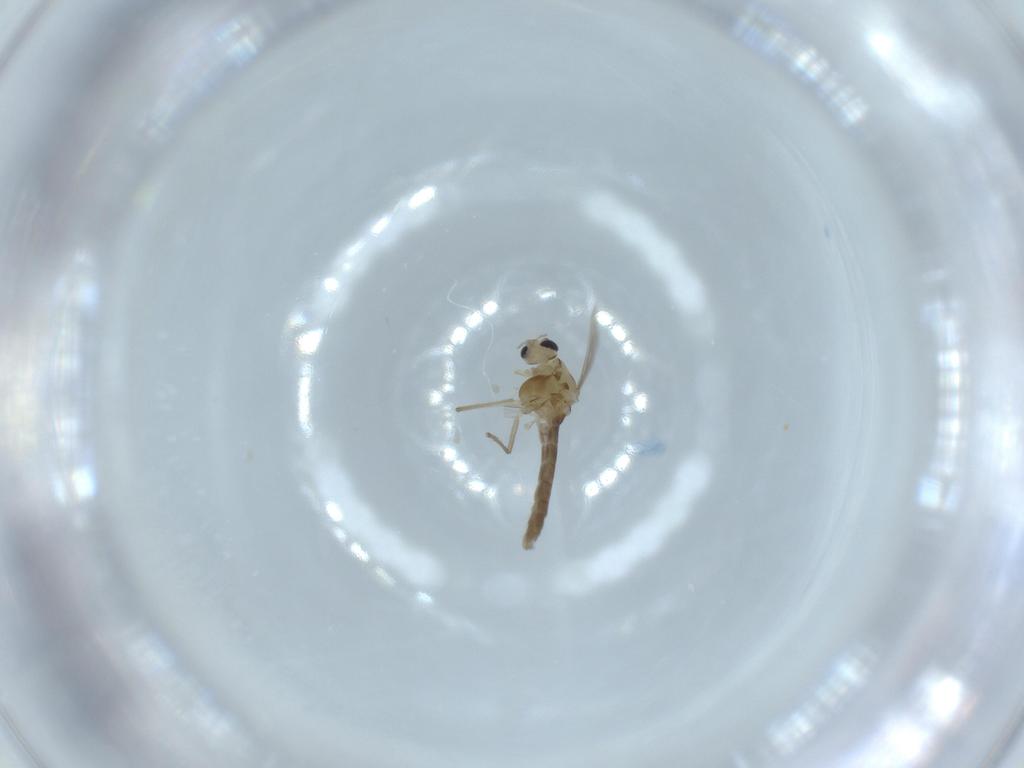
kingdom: Animalia
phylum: Arthropoda
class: Insecta
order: Diptera
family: Chironomidae
